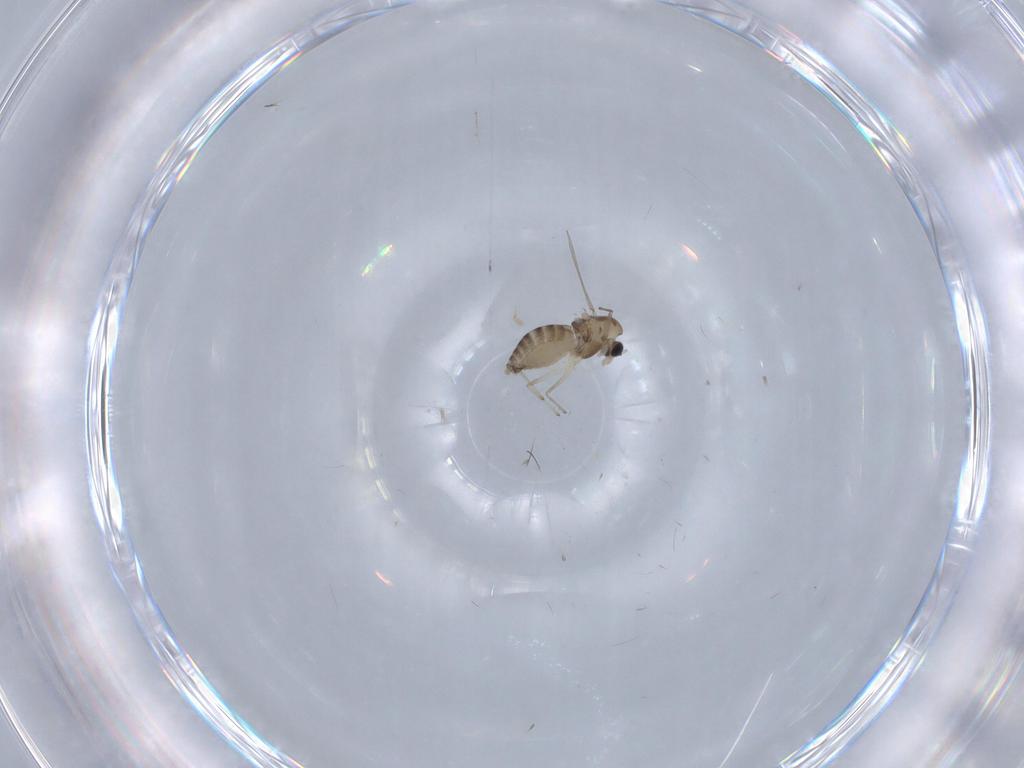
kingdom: Animalia
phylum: Arthropoda
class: Insecta
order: Diptera
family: Chironomidae
